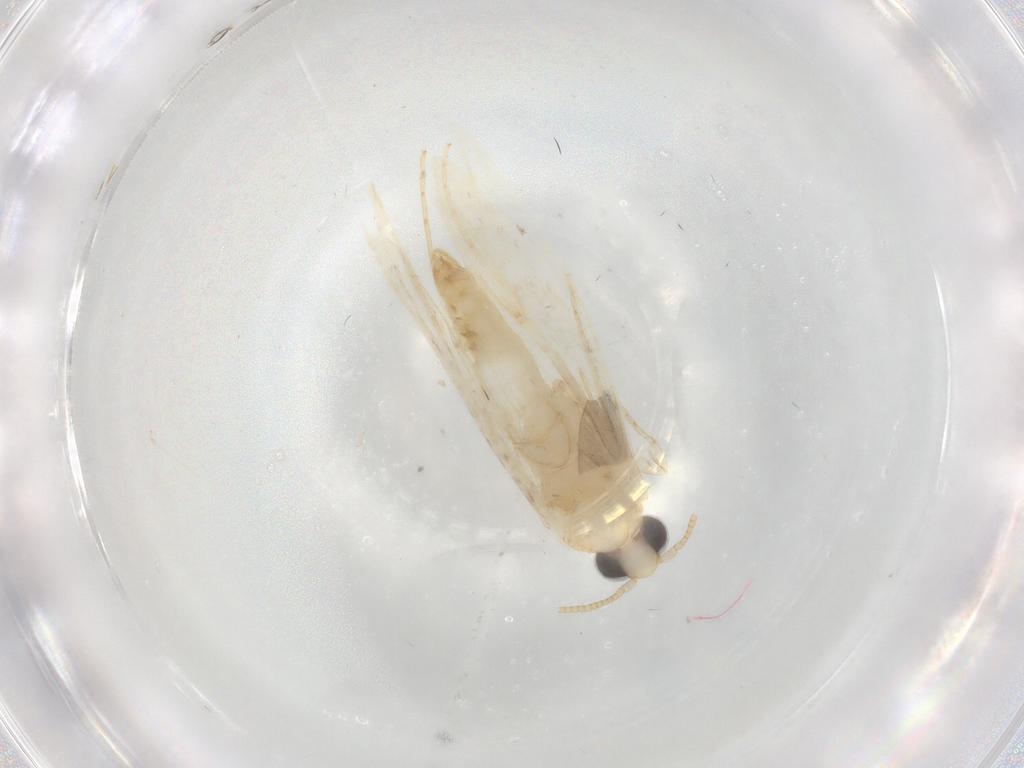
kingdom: Animalia
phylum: Arthropoda
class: Insecta
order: Lepidoptera
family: Tineidae
